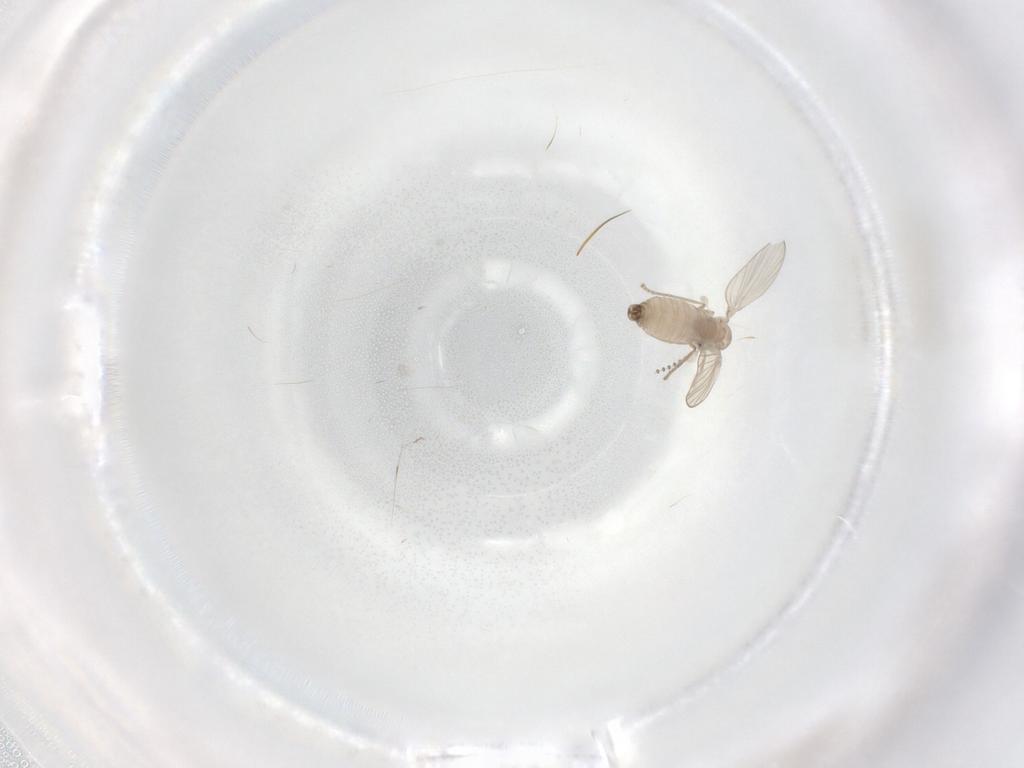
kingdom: Animalia
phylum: Arthropoda
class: Insecta
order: Diptera
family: Psychodidae
